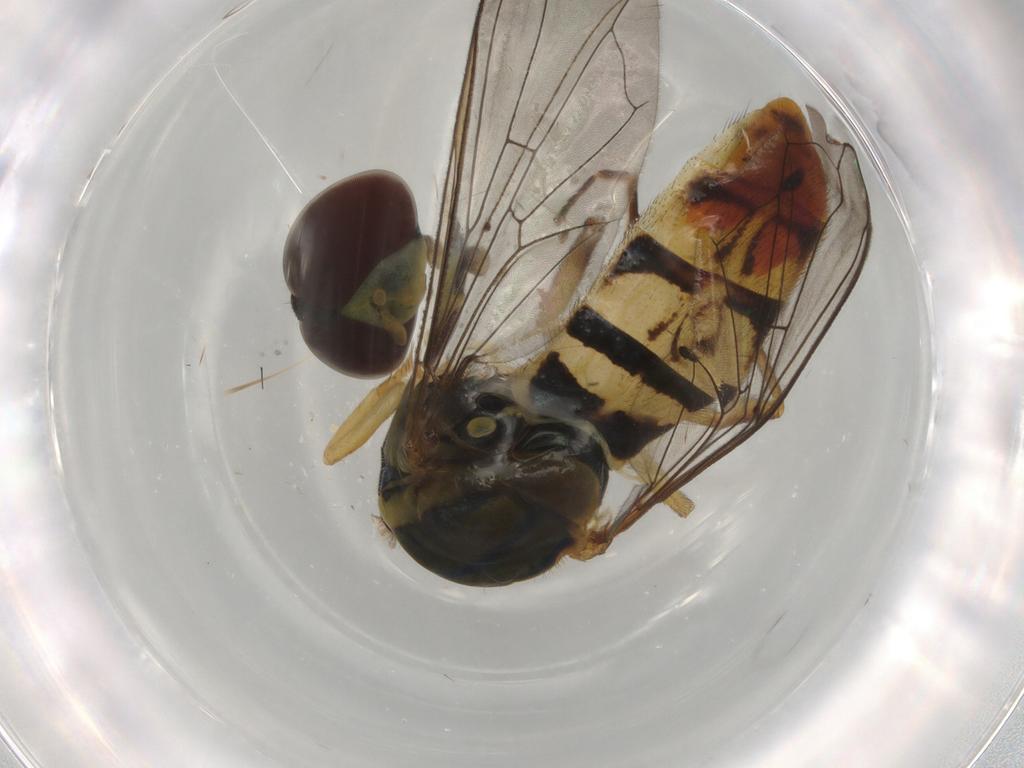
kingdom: Animalia
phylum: Arthropoda
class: Insecta
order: Diptera
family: Syrphidae
